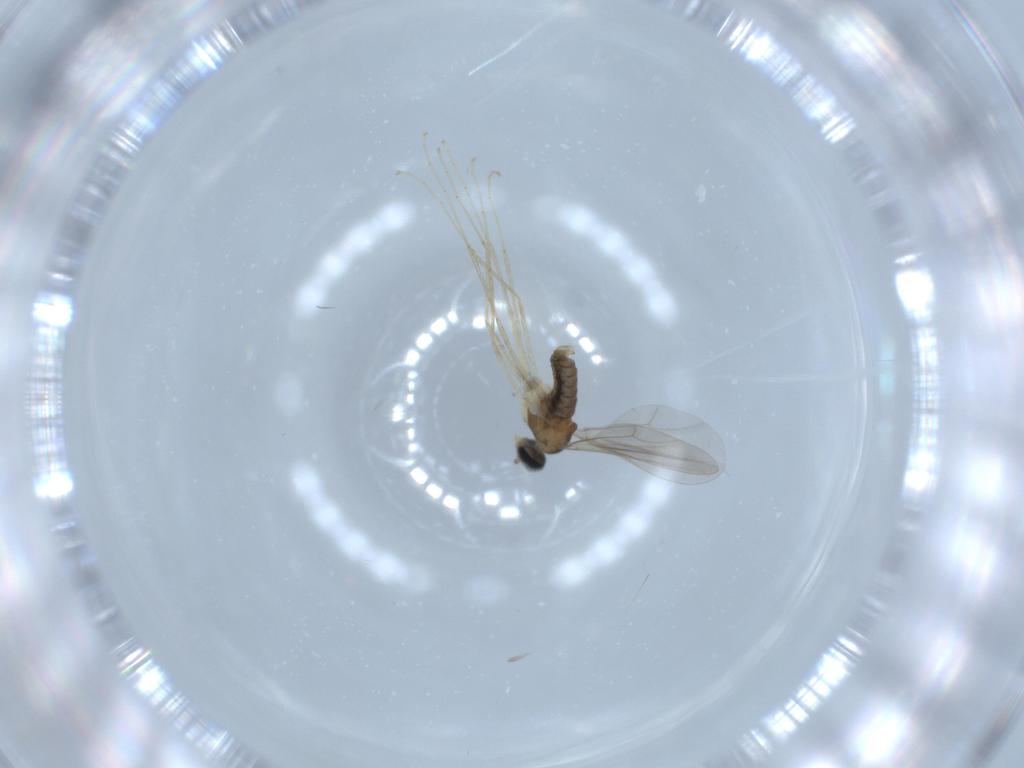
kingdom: Animalia
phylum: Arthropoda
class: Insecta
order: Diptera
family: Cecidomyiidae
